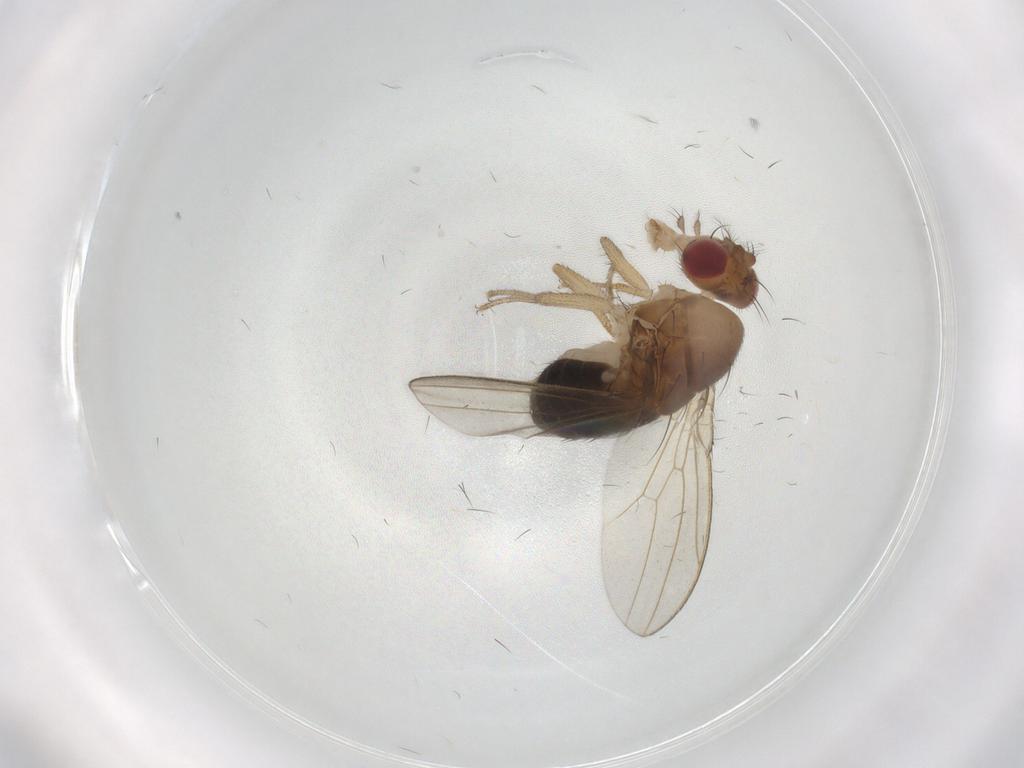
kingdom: Animalia
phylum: Arthropoda
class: Insecta
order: Diptera
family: Drosophilidae
